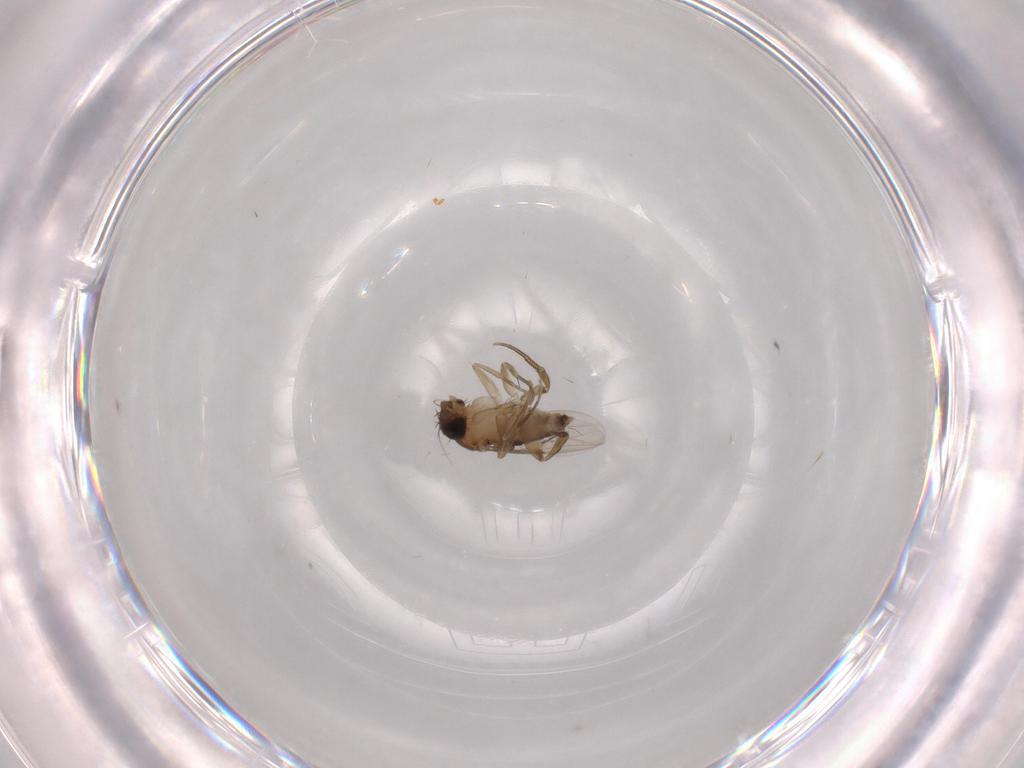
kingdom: Animalia
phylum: Arthropoda
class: Insecta
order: Diptera
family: Phoridae
